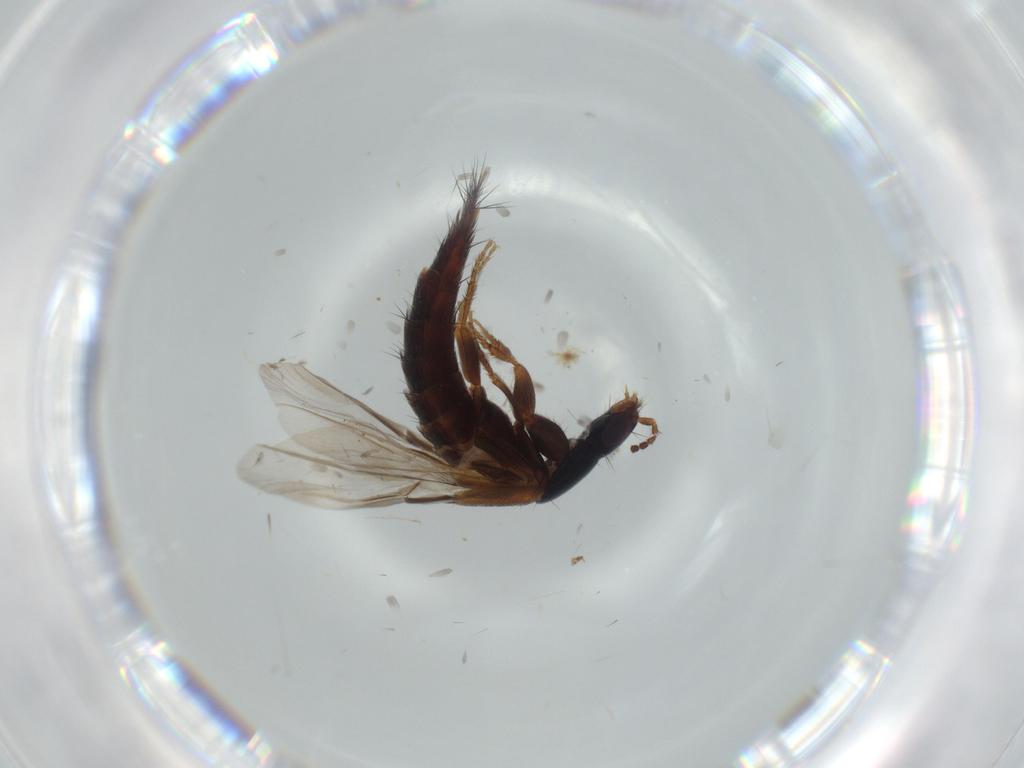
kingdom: Animalia
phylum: Arthropoda
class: Insecta
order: Coleoptera
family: Staphylinidae
